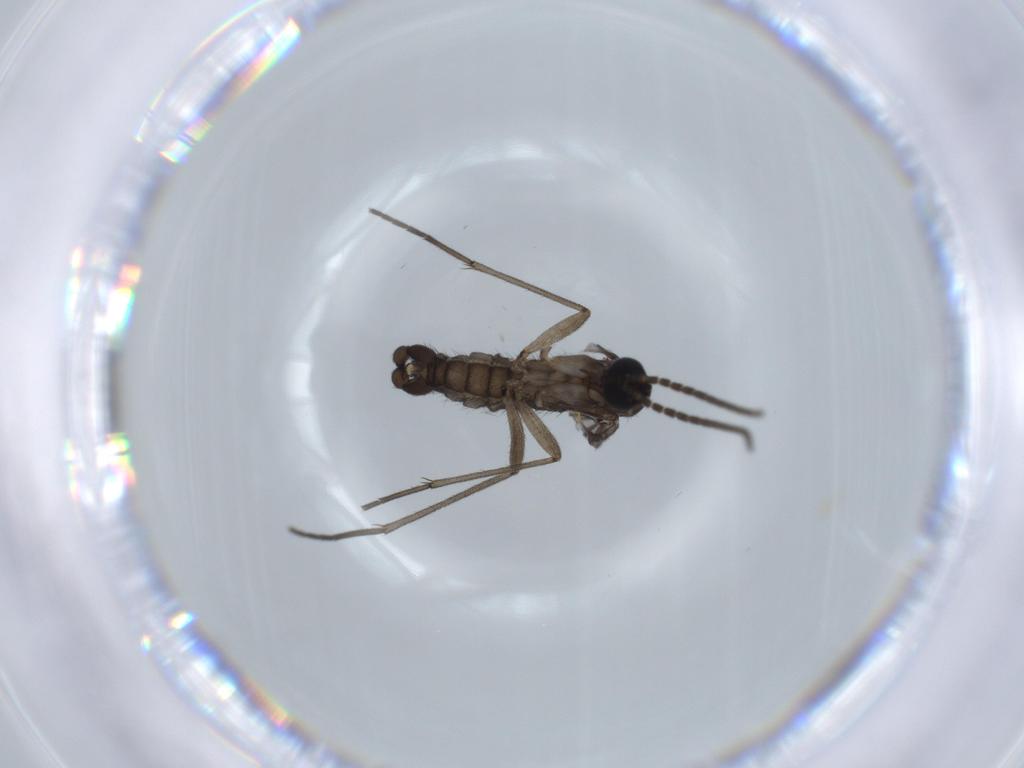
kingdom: Animalia
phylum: Arthropoda
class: Insecta
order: Diptera
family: Sciaridae
